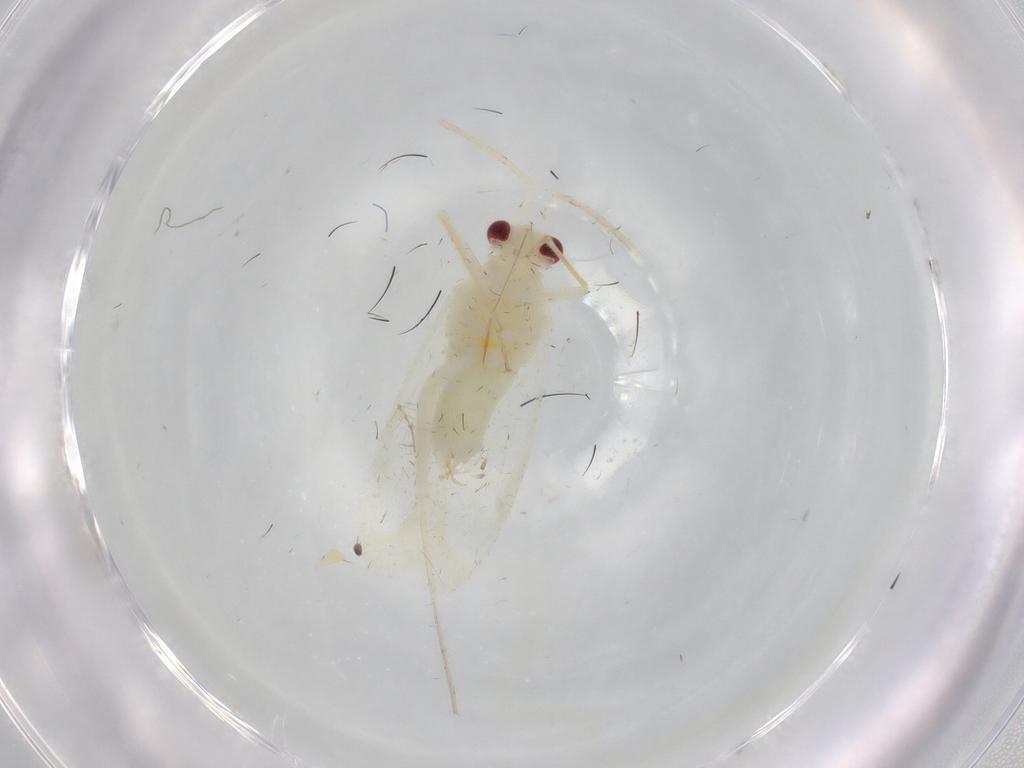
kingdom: Animalia
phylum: Arthropoda
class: Insecta
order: Hemiptera
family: Miridae
